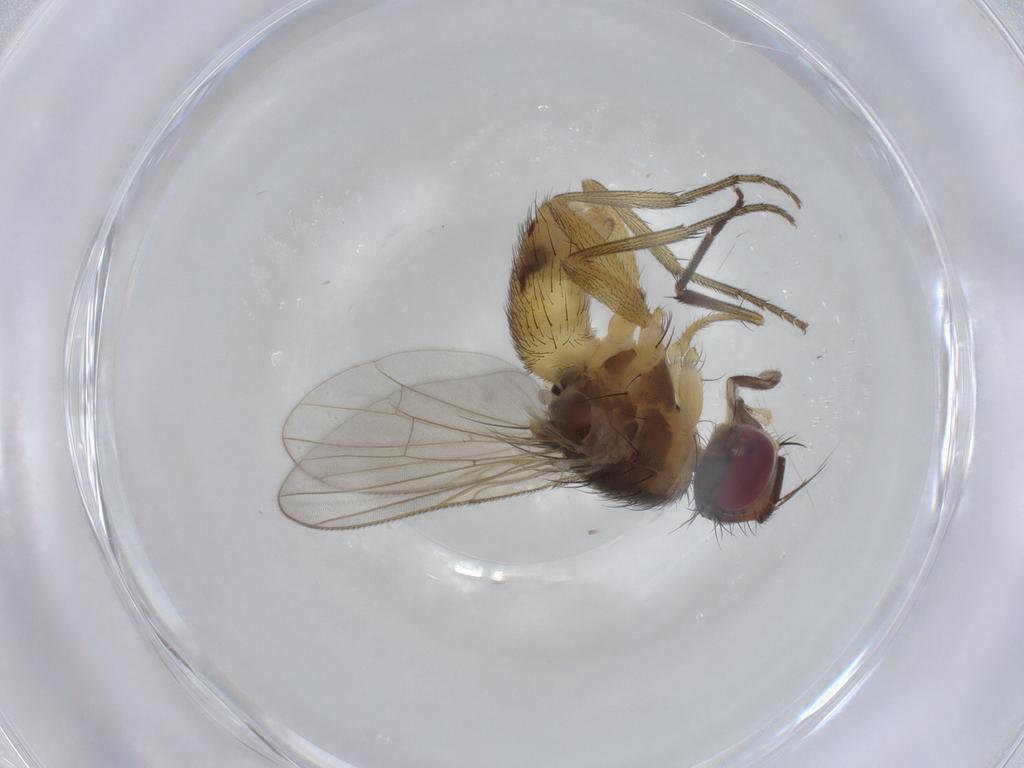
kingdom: Animalia
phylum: Arthropoda
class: Insecta
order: Diptera
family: Muscidae
